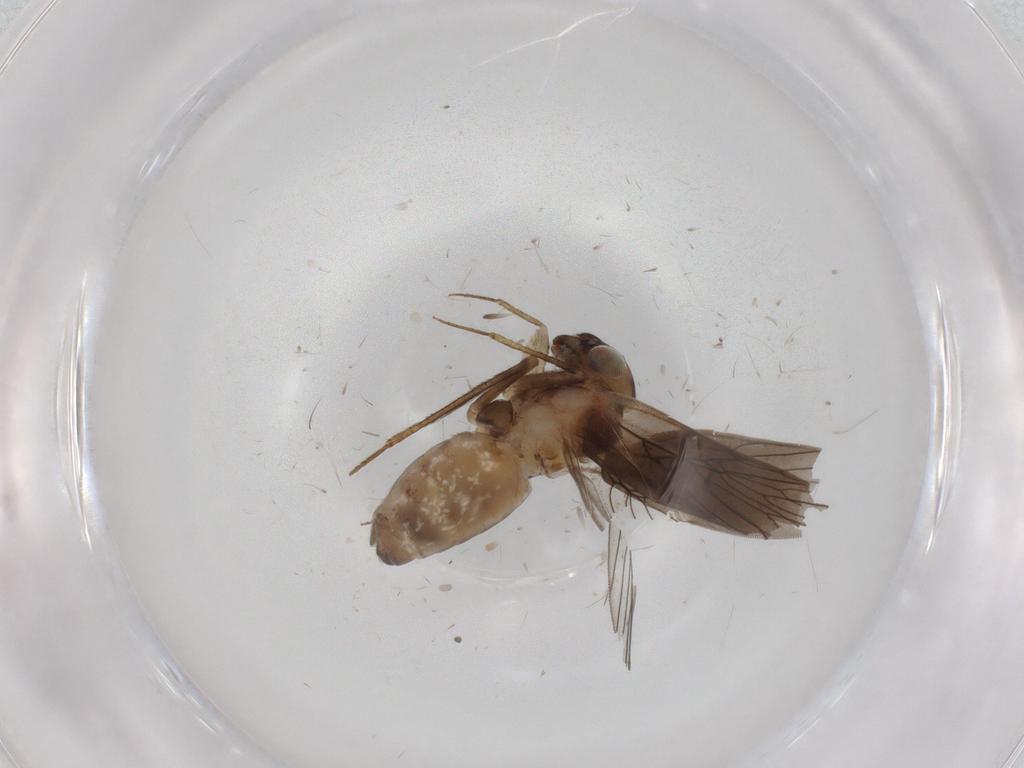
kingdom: Animalia
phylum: Arthropoda
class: Insecta
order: Psocodea
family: Lepidopsocidae
